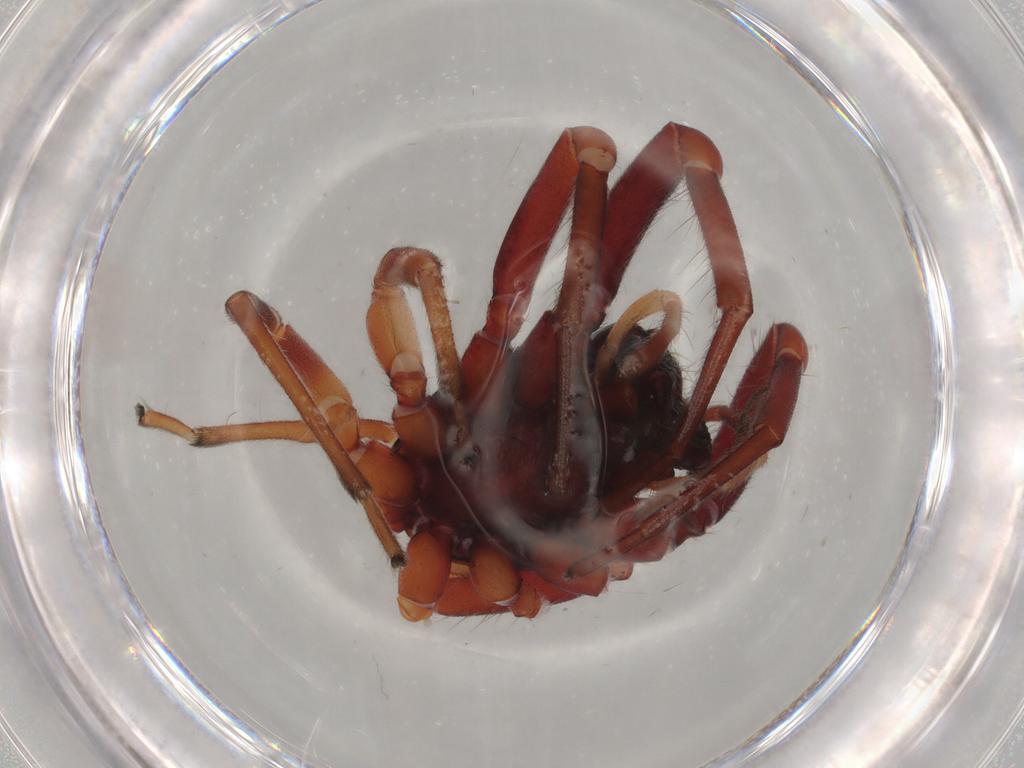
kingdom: Animalia
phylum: Arthropoda
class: Arachnida
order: Araneae
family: Trachelidae
